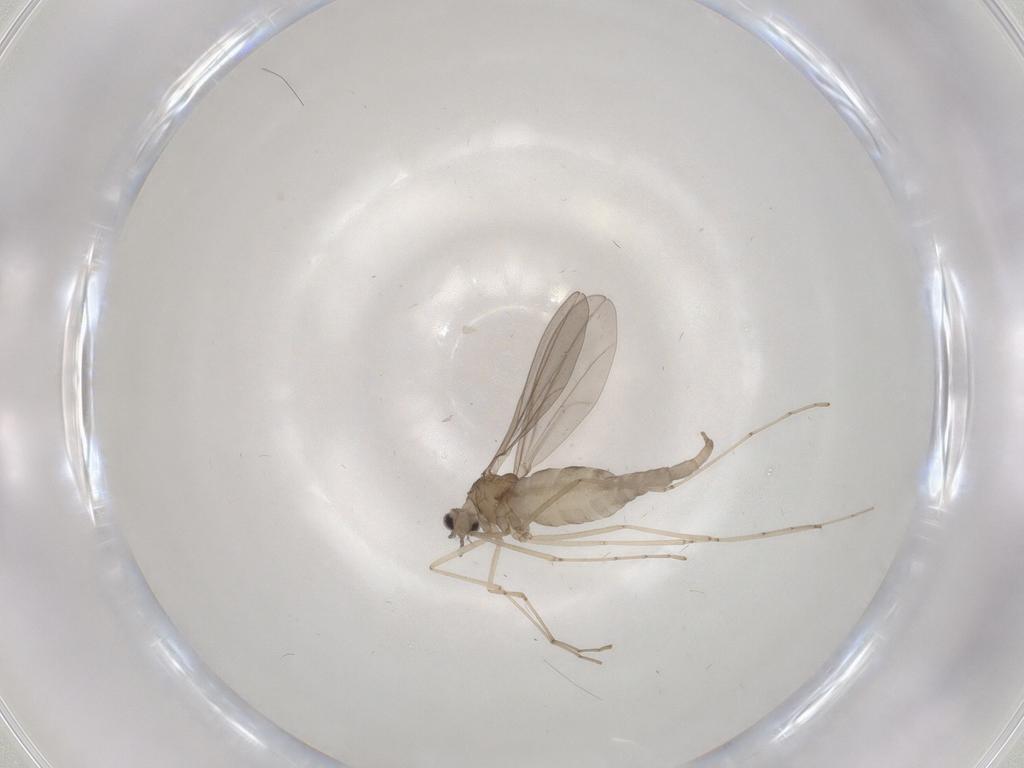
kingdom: Animalia
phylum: Arthropoda
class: Insecta
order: Diptera
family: Cecidomyiidae
